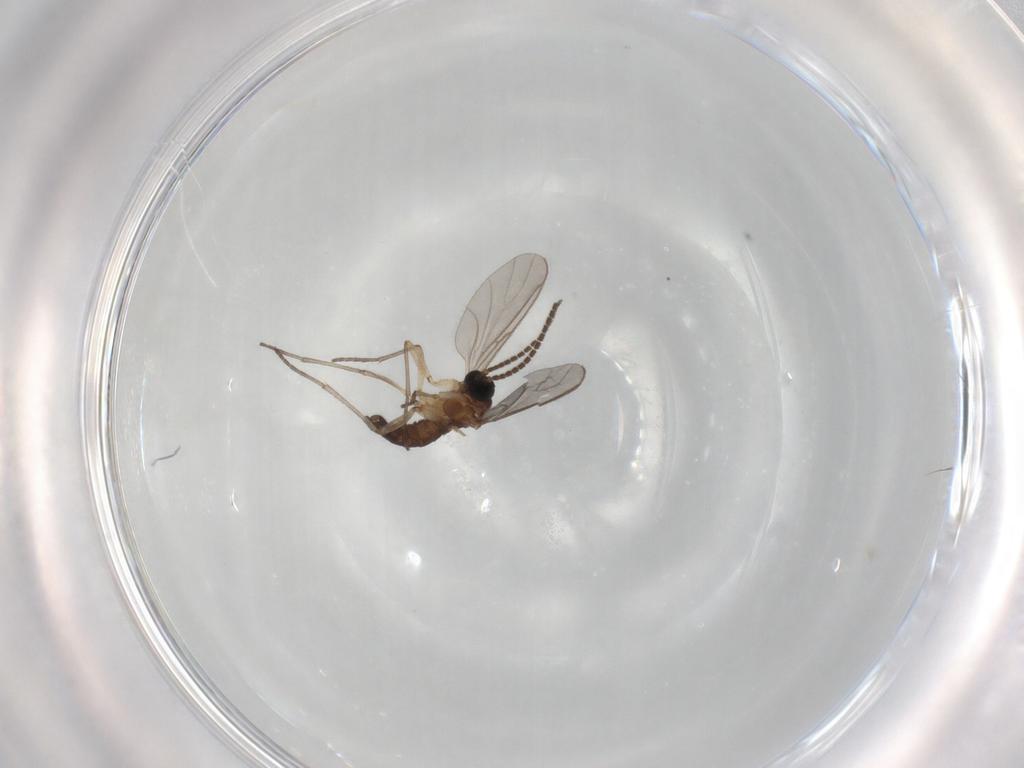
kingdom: Animalia
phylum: Arthropoda
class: Insecta
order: Diptera
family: Sciaridae
